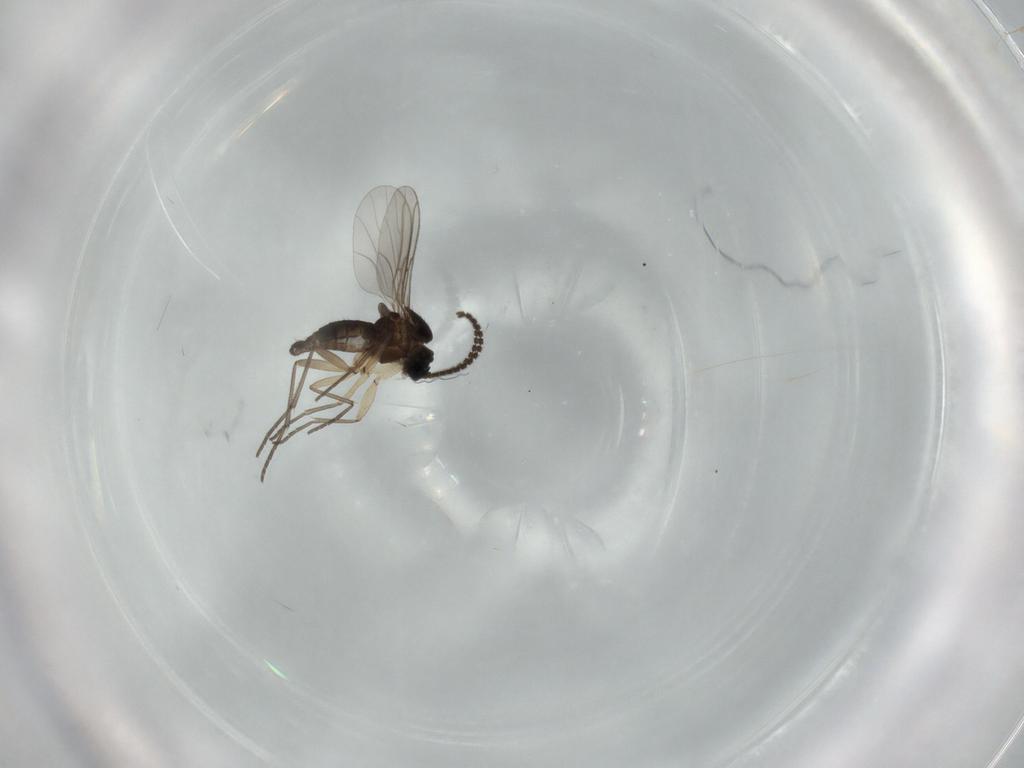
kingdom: Animalia
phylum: Arthropoda
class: Insecta
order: Diptera
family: Sciaridae
